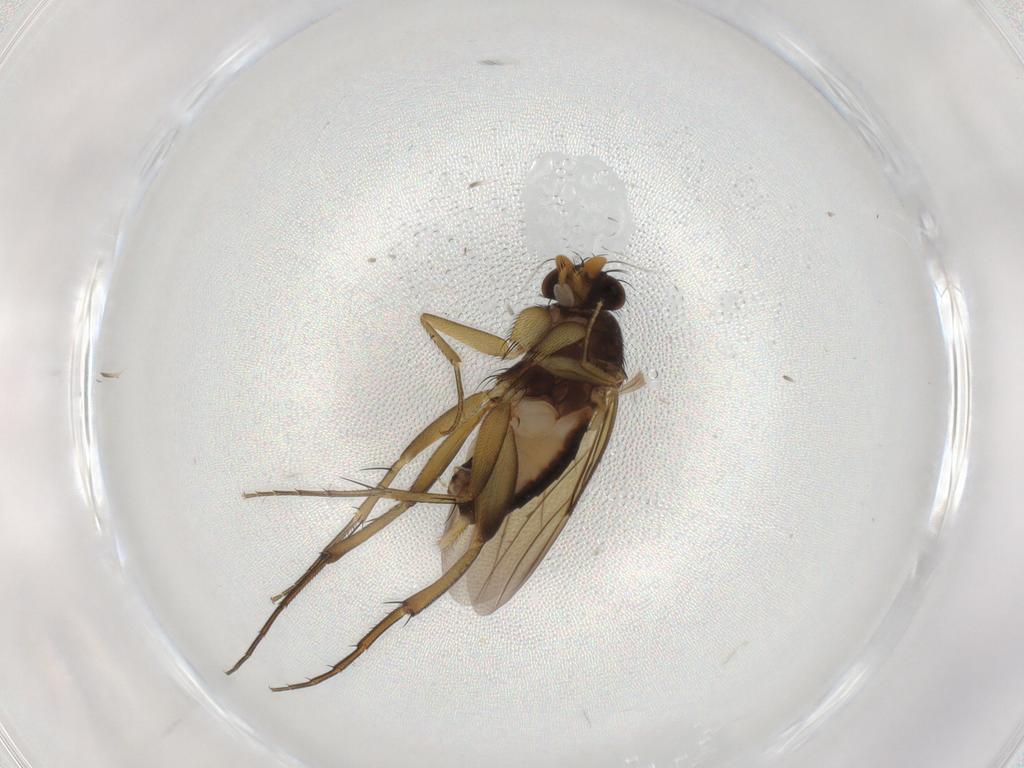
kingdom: Animalia
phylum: Arthropoda
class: Insecta
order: Diptera
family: Phoridae
